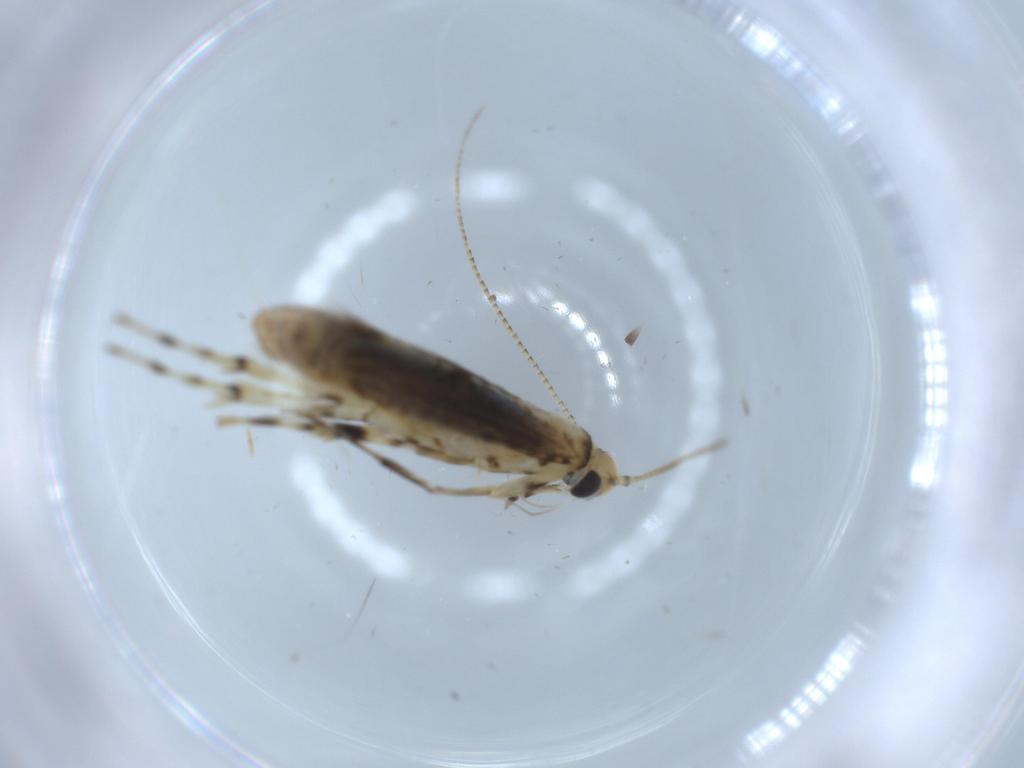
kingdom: Animalia
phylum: Arthropoda
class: Insecta
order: Lepidoptera
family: Gracillariidae
